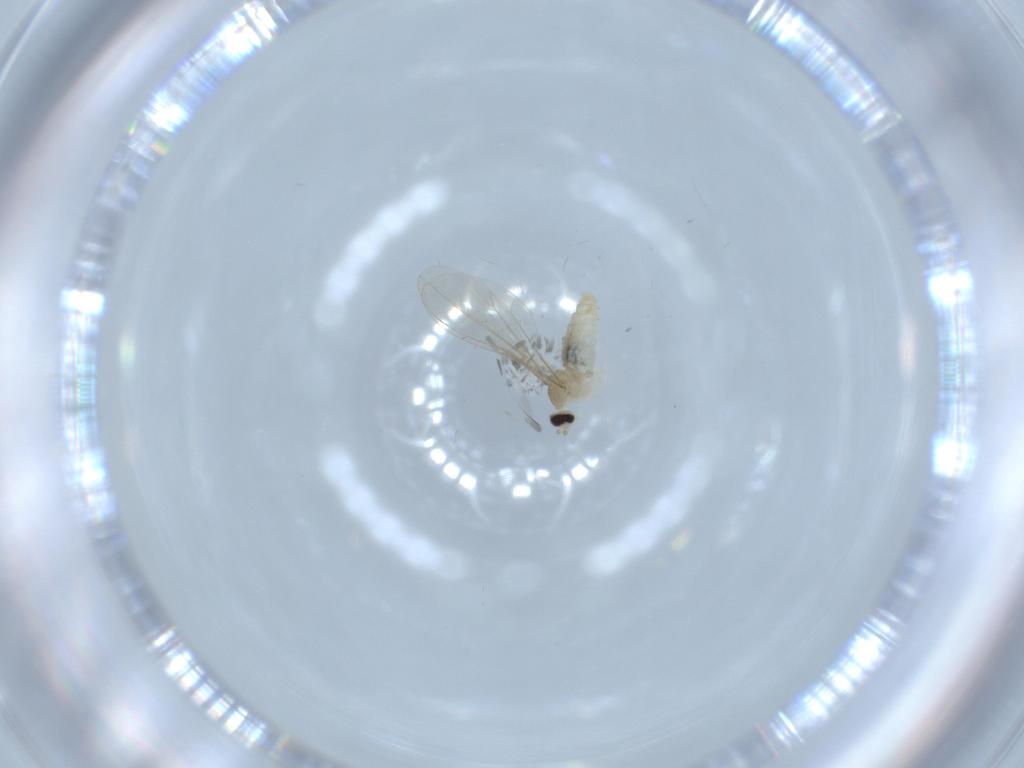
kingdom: Animalia
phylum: Arthropoda
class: Insecta
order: Diptera
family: Cecidomyiidae
